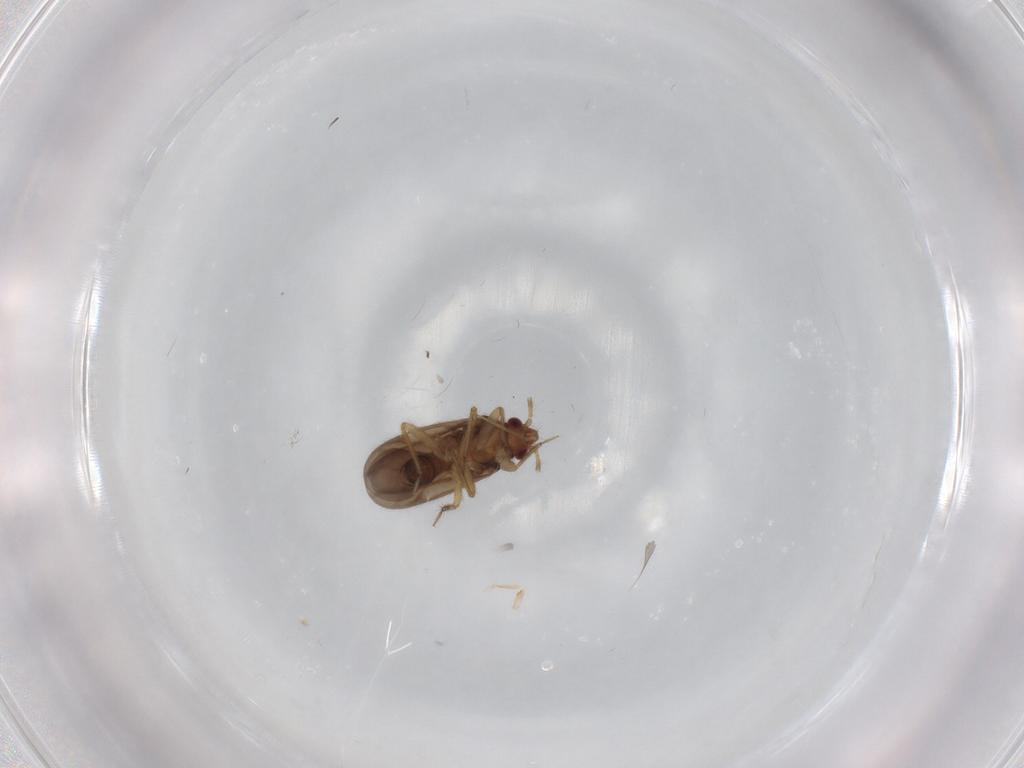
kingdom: Animalia
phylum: Arthropoda
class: Insecta
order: Hemiptera
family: Ceratocombidae
